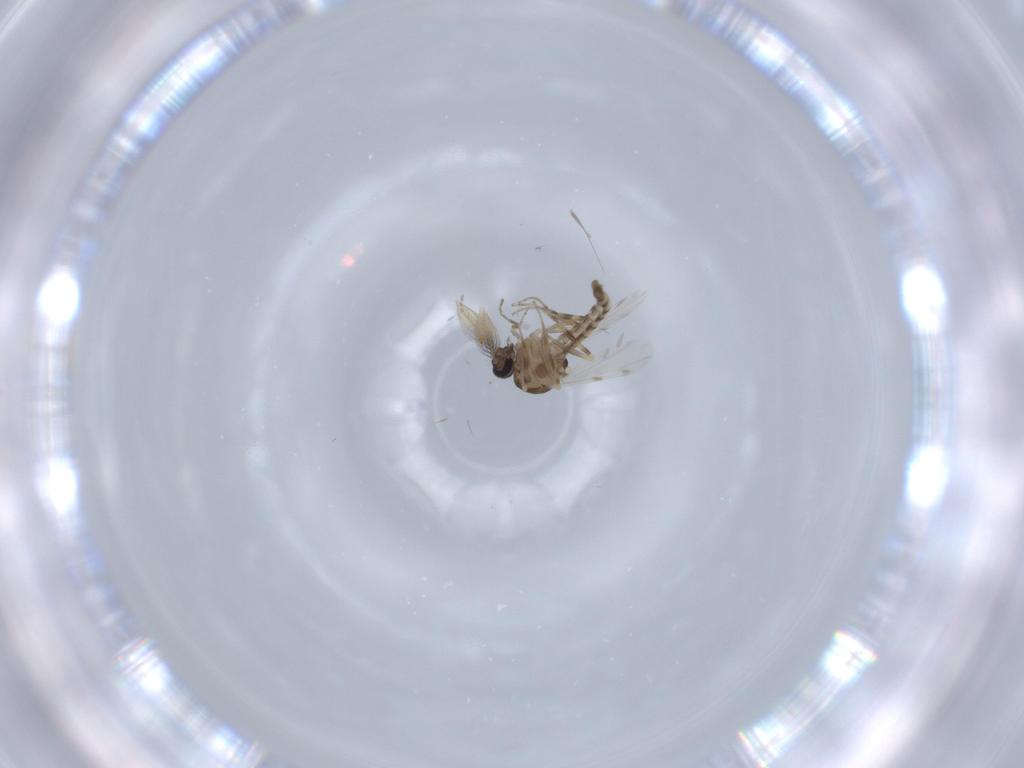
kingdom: Animalia
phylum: Arthropoda
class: Insecta
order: Diptera
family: Ceratopogonidae
